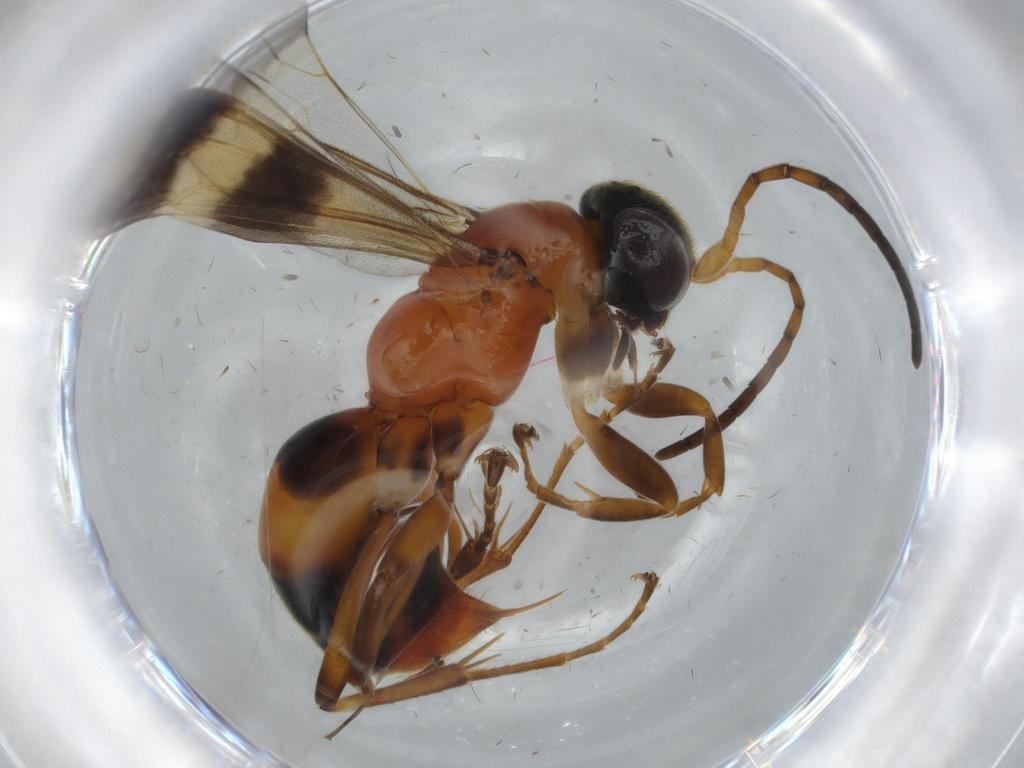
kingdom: Animalia
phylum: Arthropoda
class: Insecta
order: Hymenoptera
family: Pompilidae
